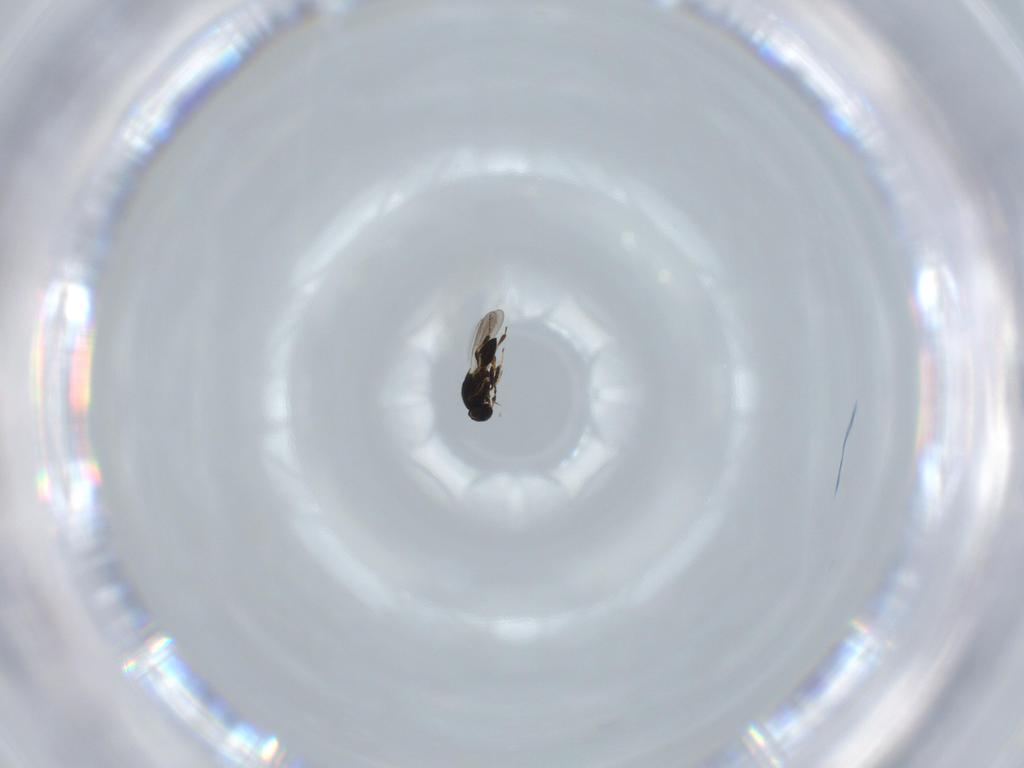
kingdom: Animalia
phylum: Arthropoda
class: Insecta
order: Hymenoptera
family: Platygastridae
